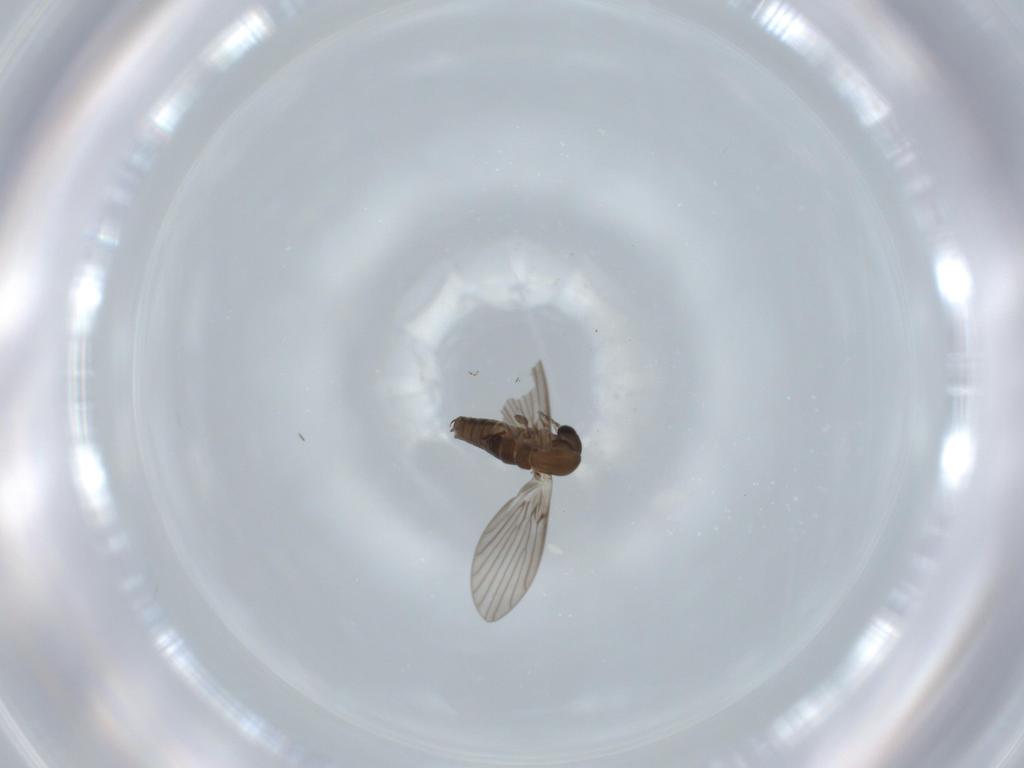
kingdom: Animalia
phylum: Arthropoda
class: Insecta
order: Diptera
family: Psychodidae
